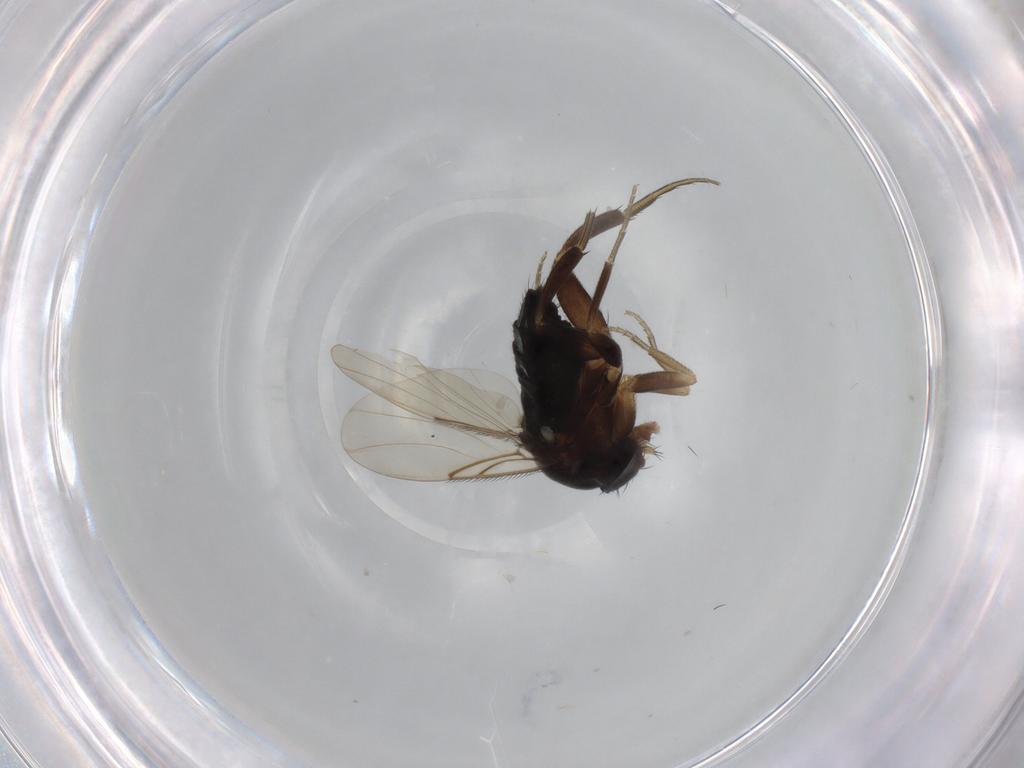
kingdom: Animalia
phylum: Arthropoda
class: Insecta
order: Diptera
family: Phoridae
